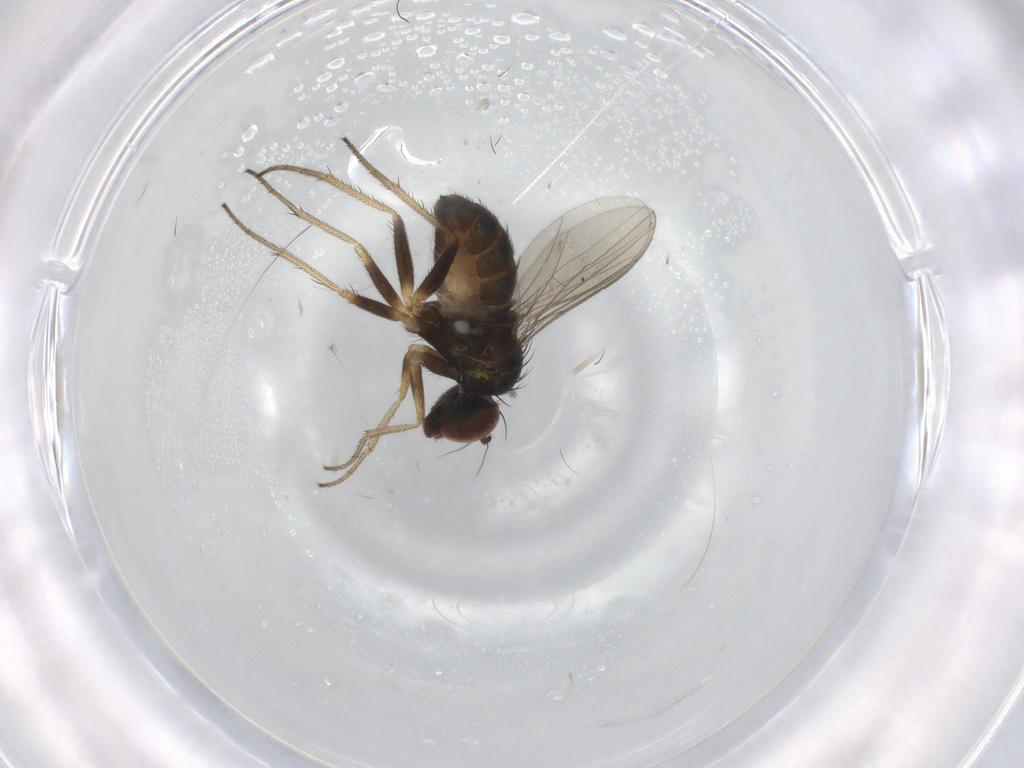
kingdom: Animalia
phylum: Arthropoda
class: Insecta
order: Diptera
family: Dolichopodidae
